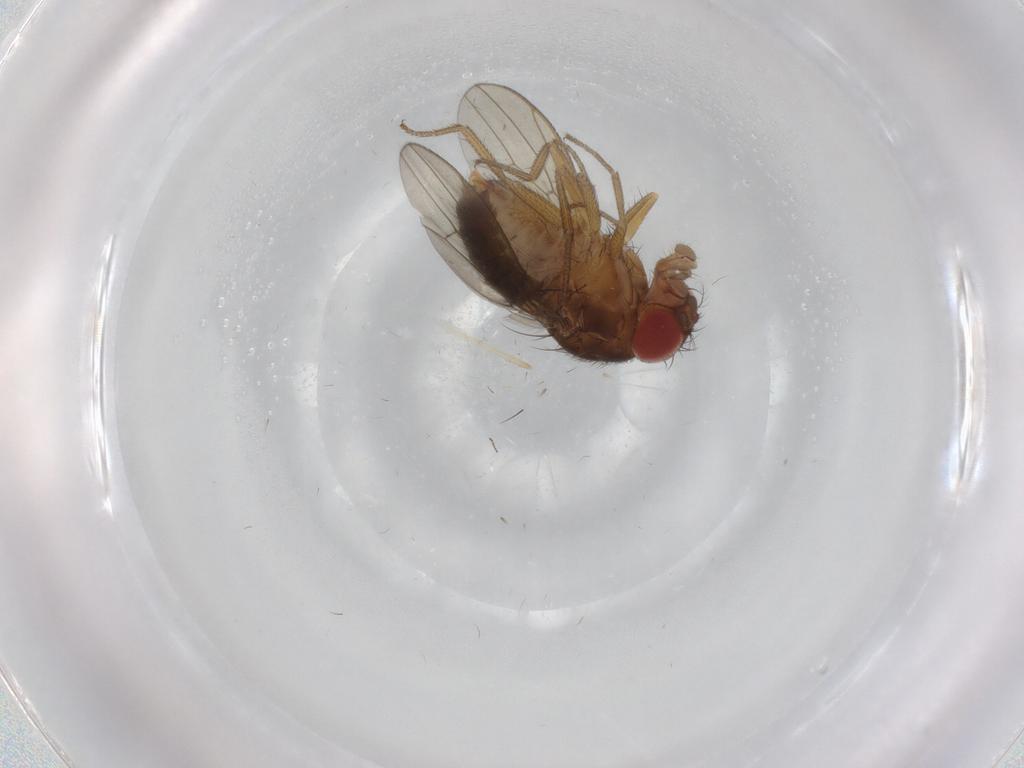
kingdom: Animalia
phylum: Arthropoda
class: Insecta
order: Diptera
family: Drosophilidae
